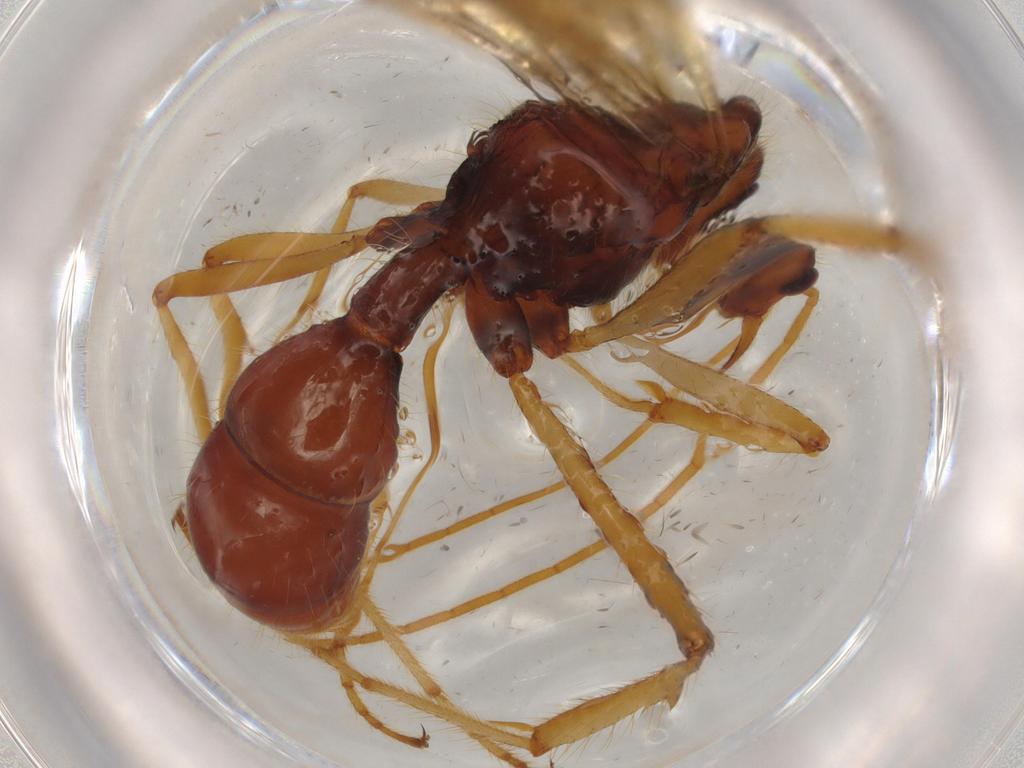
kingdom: Animalia
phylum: Arthropoda
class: Insecta
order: Hymenoptera
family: Formicidae
